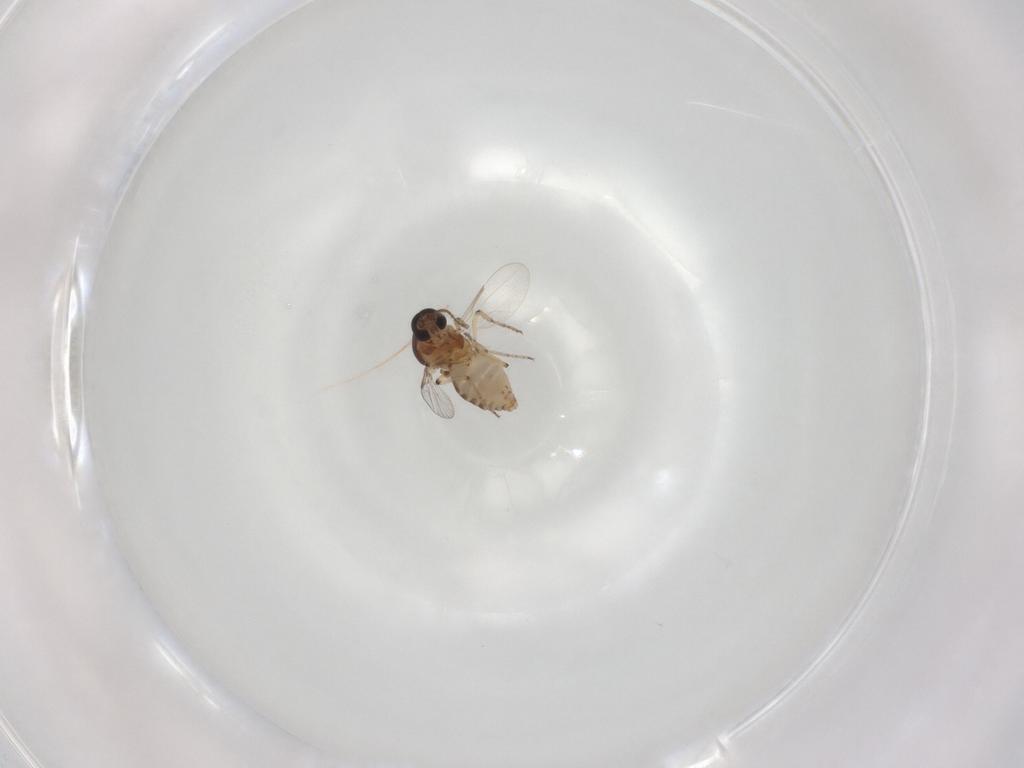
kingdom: Animalia
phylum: Arthropoda
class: Insecta
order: Diptera
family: Ceratopogonidae
